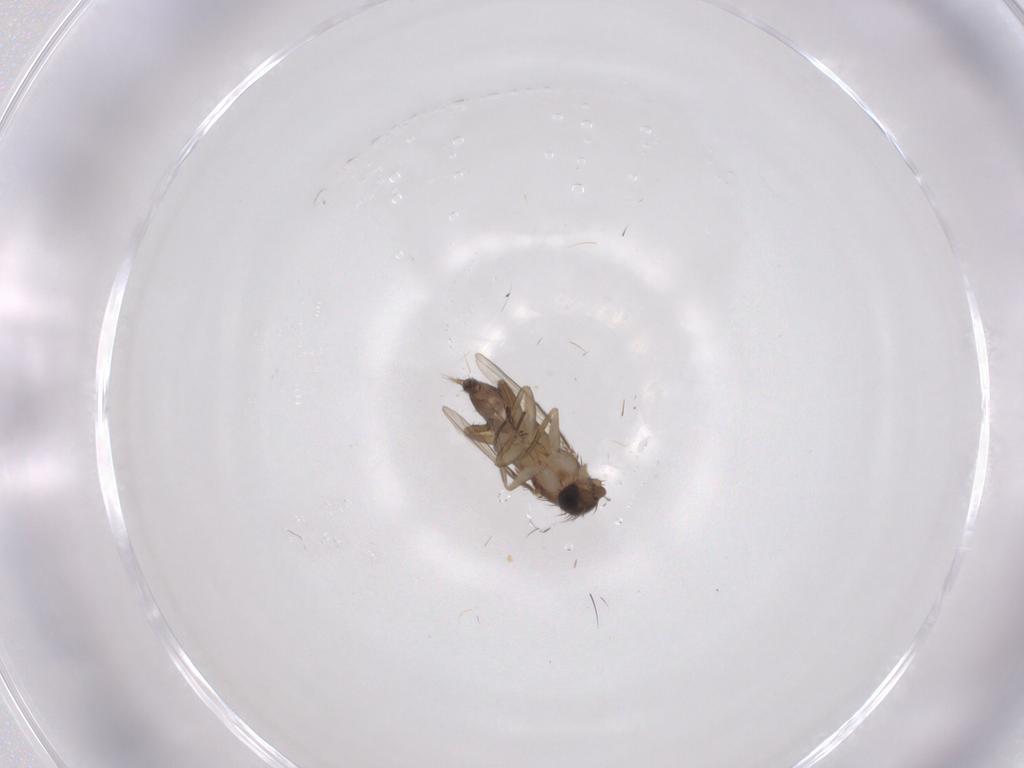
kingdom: Animalia
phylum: Arthropoda
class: Insecta
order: Diptera
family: Phoridae
